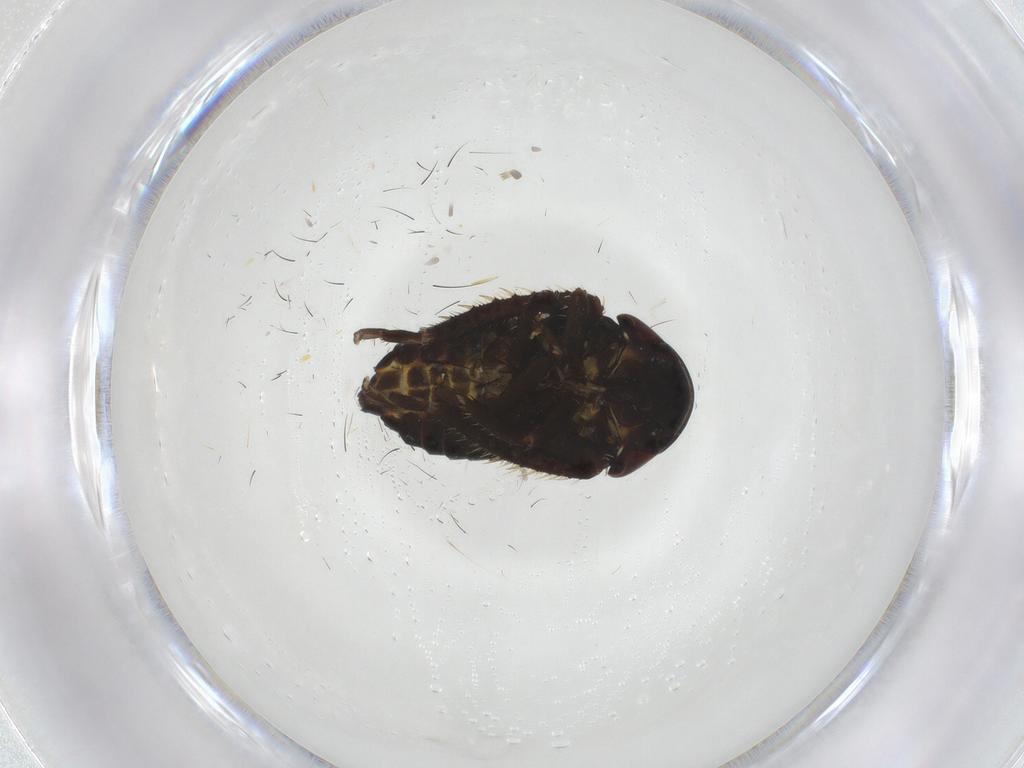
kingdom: Animalia
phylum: Arthropoda
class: Insecta
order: Hemiptera
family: Cicadellidae
